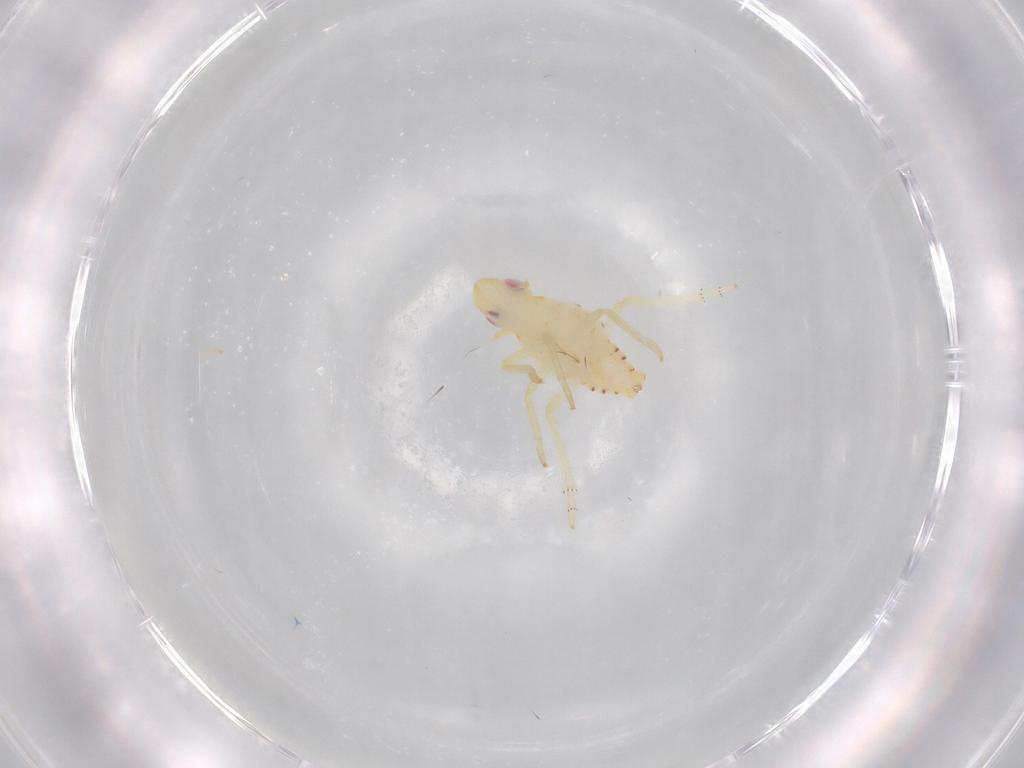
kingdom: Animalia
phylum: Arthropoda
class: Insecta
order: Hemiptera
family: Tropiduchidae
